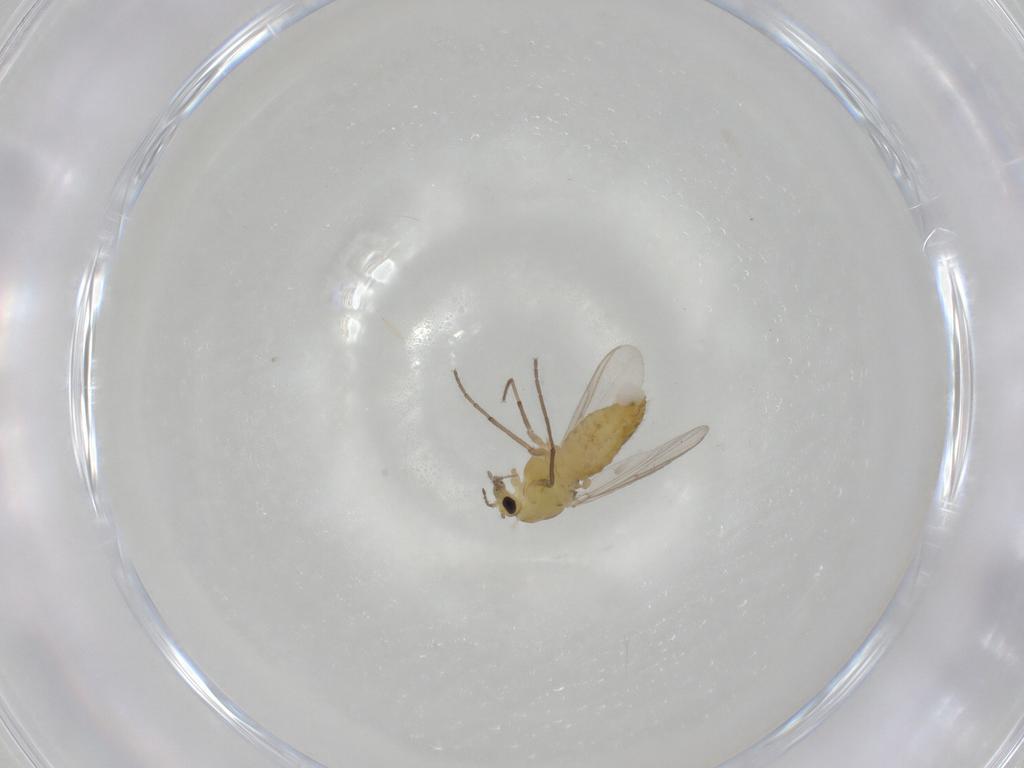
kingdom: Animalia
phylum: Arthropoda
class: Insecta
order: Diptera
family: Chironomidae
